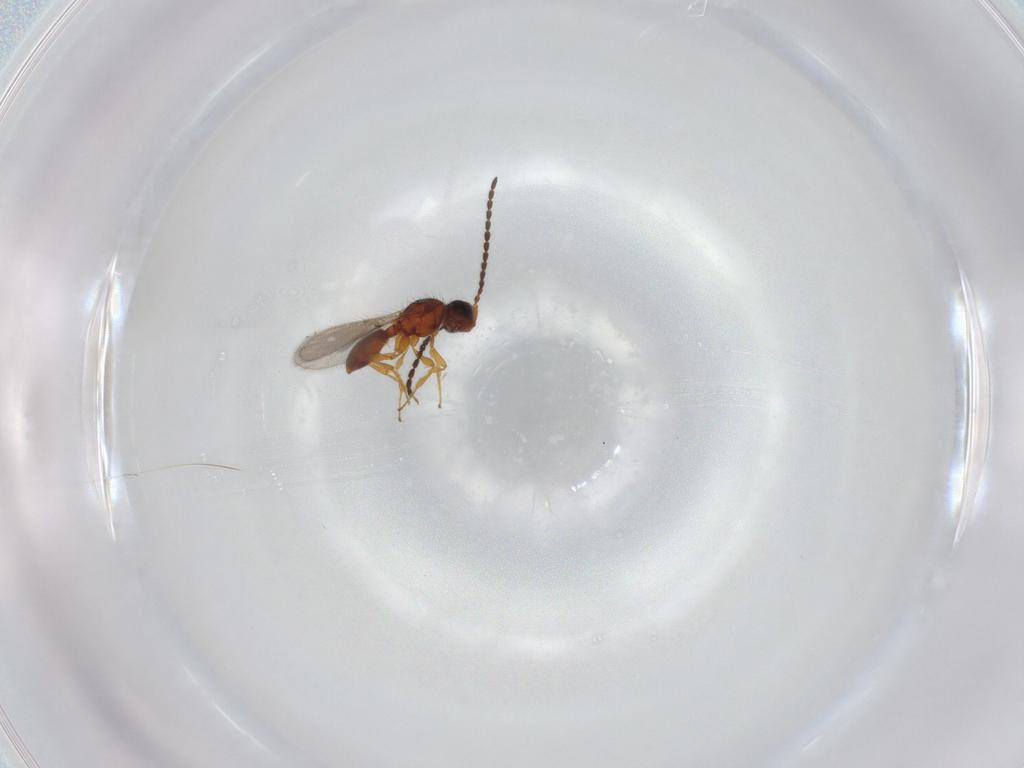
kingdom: Animalia
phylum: Arthropoda
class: Insecta
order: Hymenoptera
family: Diapriidae
